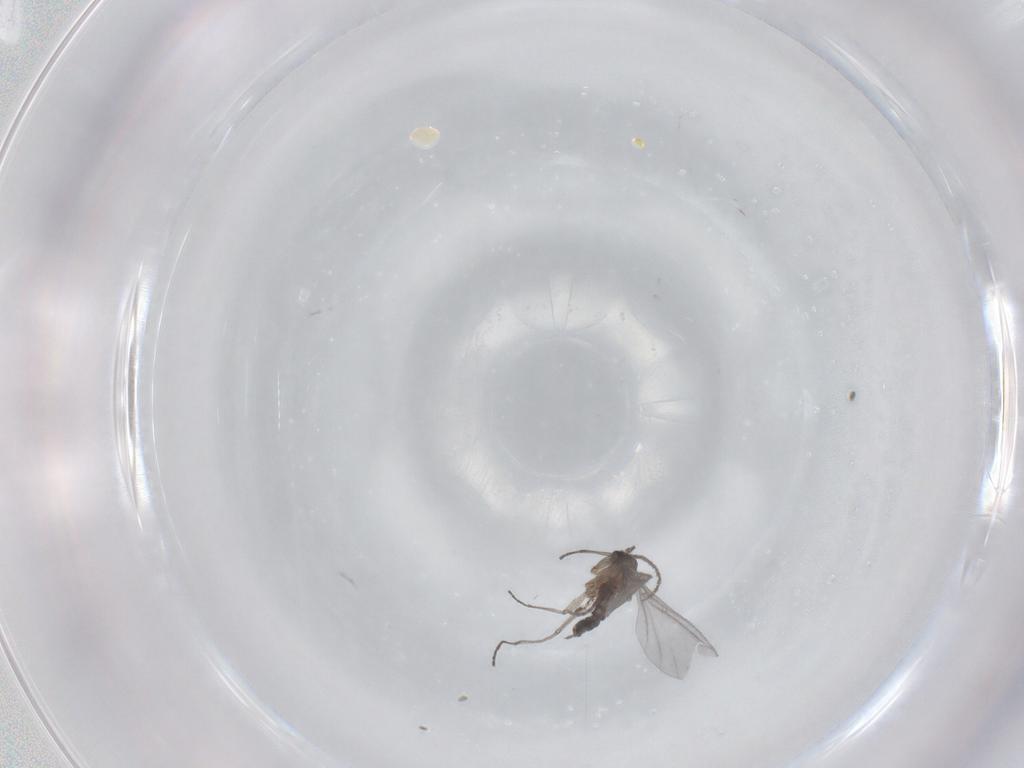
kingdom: Animalia
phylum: Arthropoda
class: Insecta
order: Diptera
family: Sciaridae
